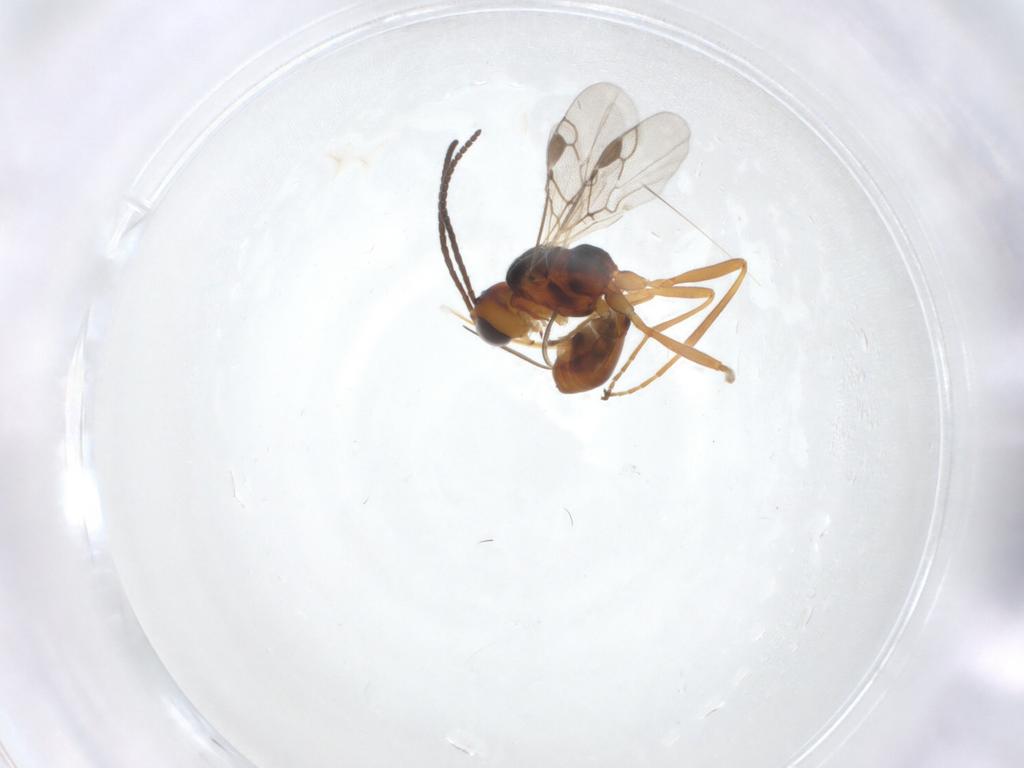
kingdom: Animalia
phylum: Arthropoda
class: Insecta
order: Hymenoptera
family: Braconidae
